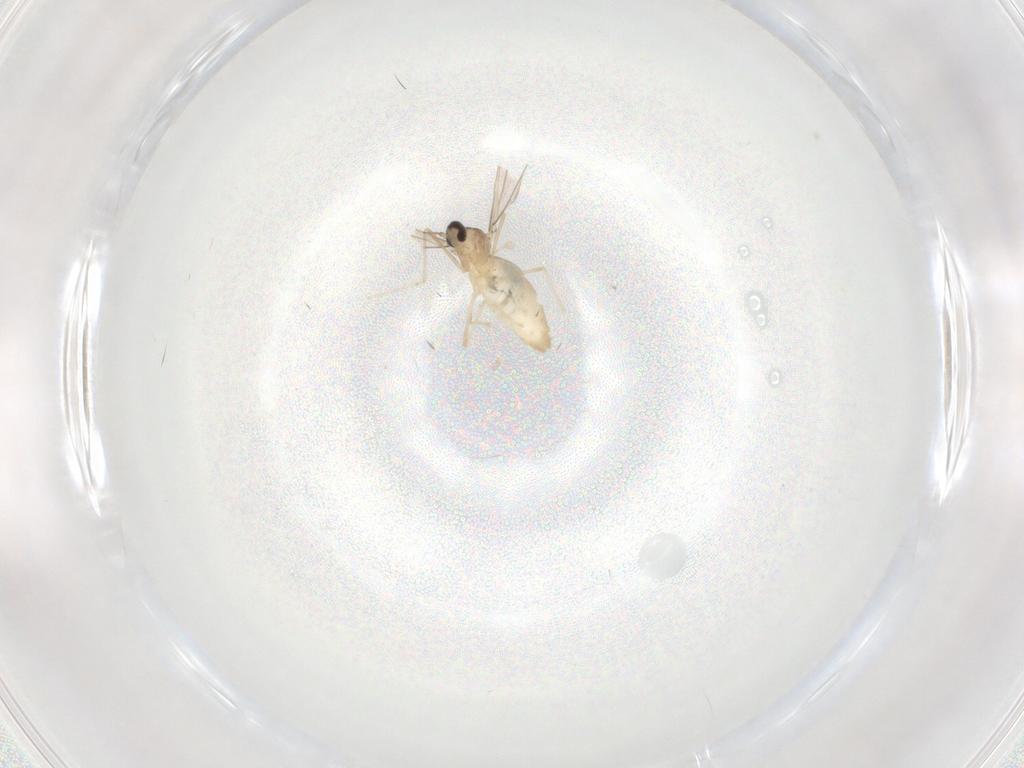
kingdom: Animalia
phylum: Arthropoda
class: Insecta
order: Diptera
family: Cecidomyiidae
